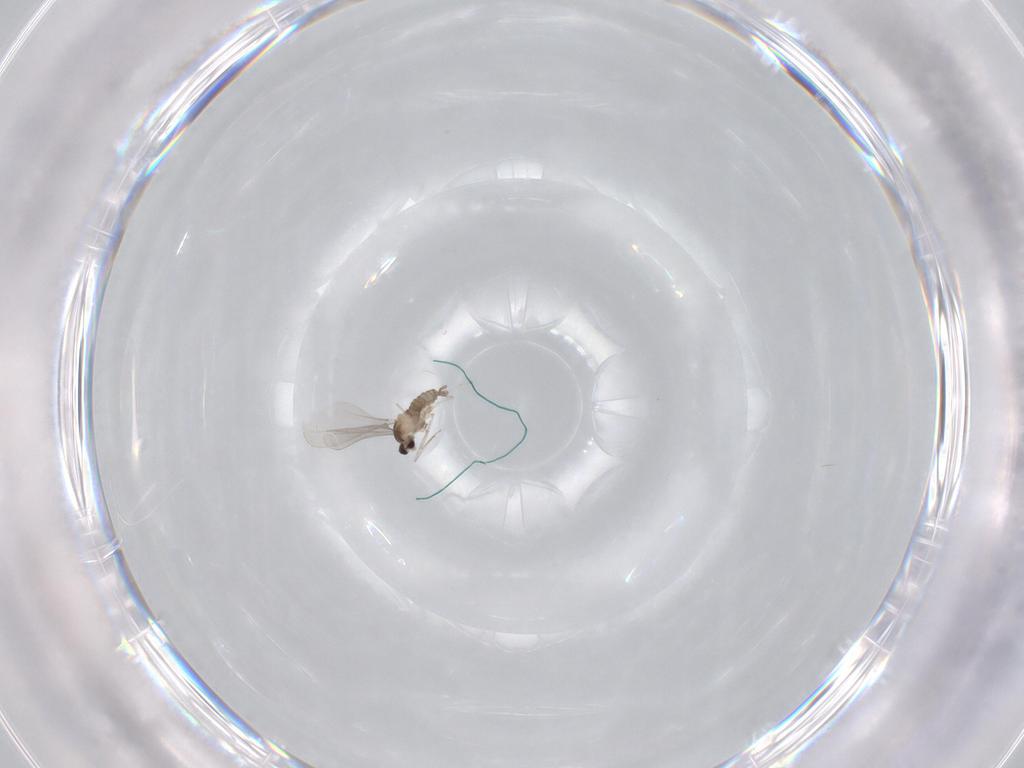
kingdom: Animalia
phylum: Arthropoda
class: Insecta
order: Diptera
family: Cecidomyiidae
